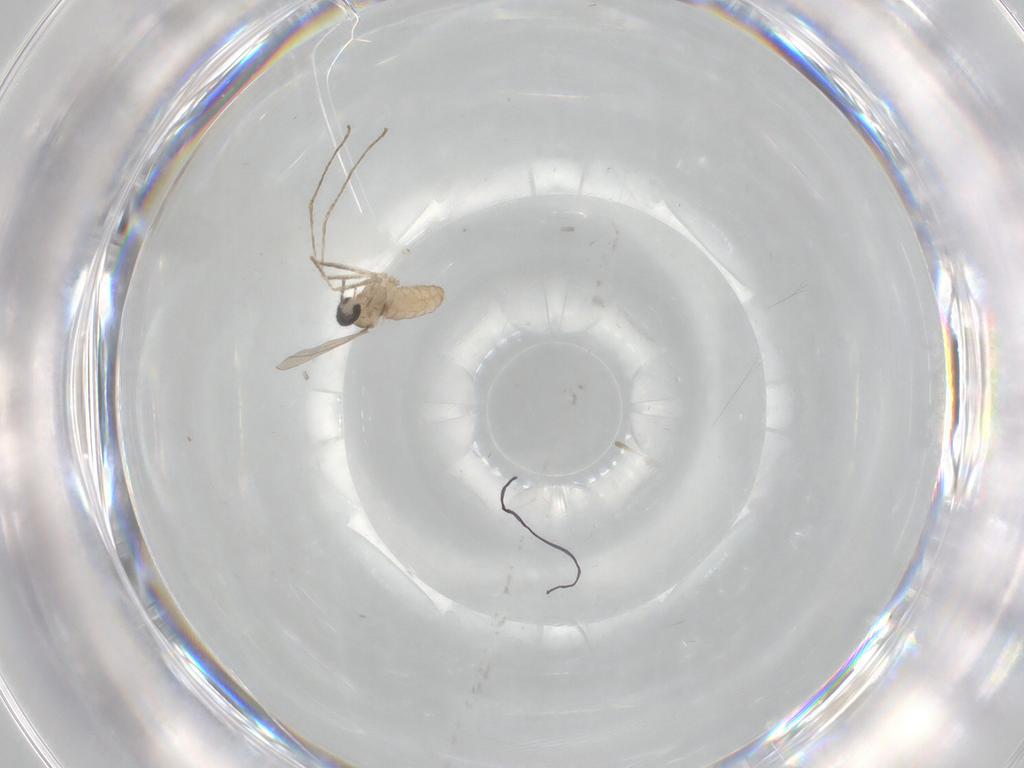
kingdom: Animalia
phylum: Arthropoda
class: Insecta
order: Diptera
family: Cecidomyiidae
